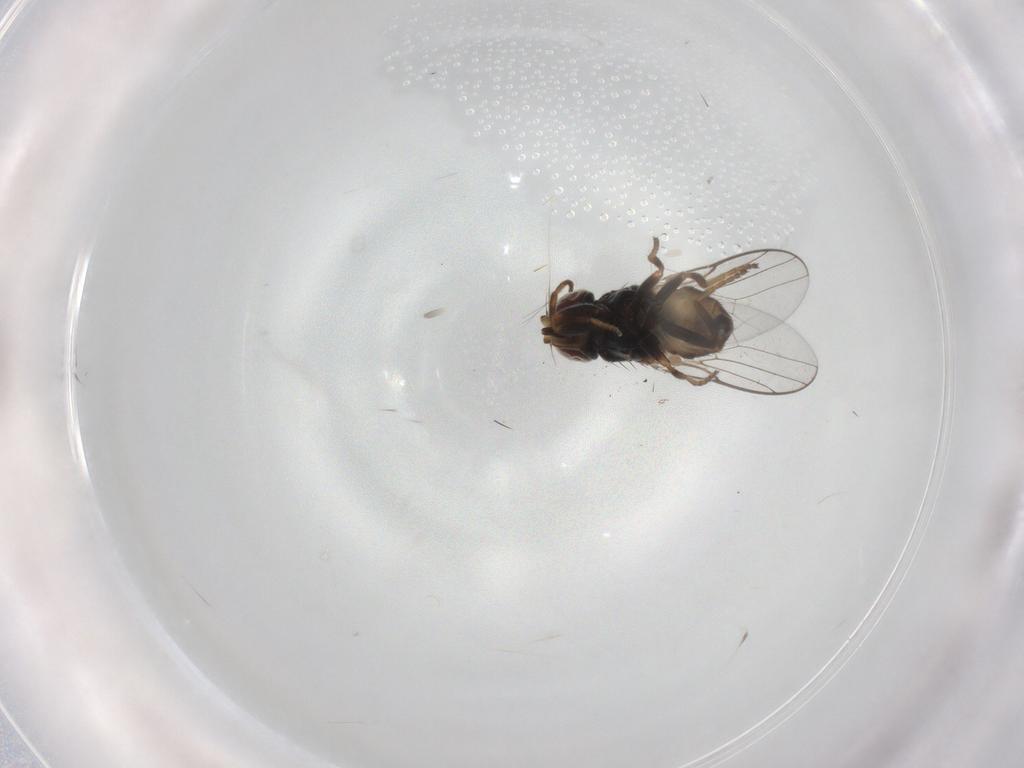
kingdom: Animalia
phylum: Arthropoda
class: Insecta
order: Diptera
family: Chloropidae
